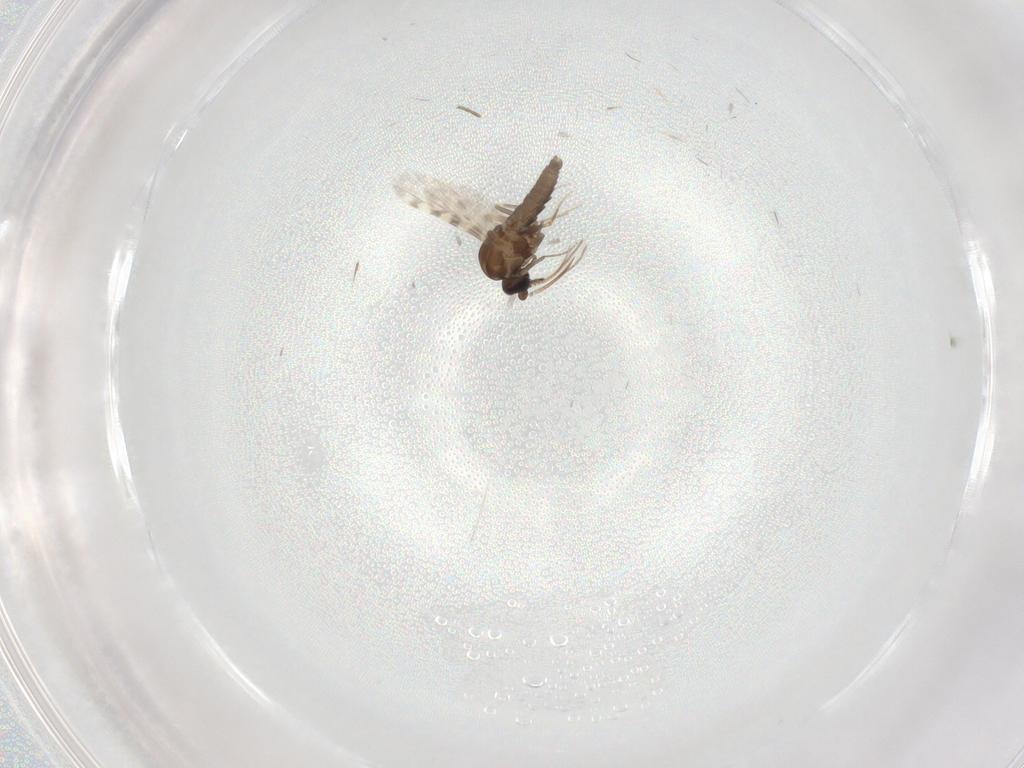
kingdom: Animalia
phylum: Arthropoda
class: Insecta
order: Diptera
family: Ceratopogonidae
